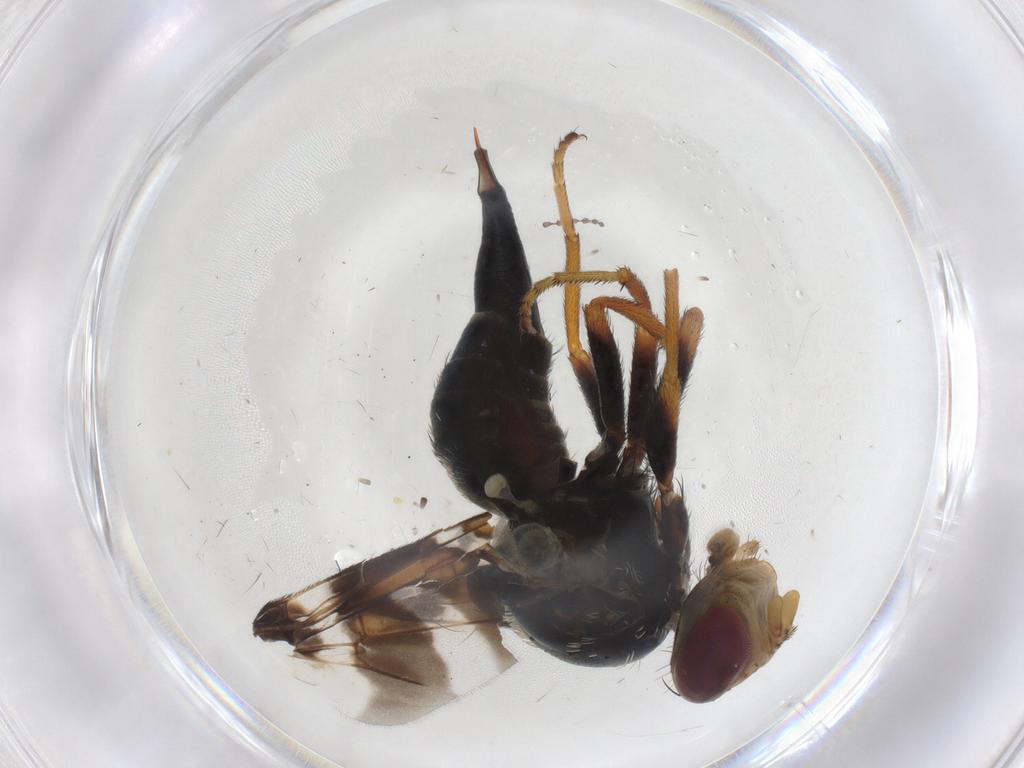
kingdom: Animalia
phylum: Arthropoda
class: Insecta
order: Diptera
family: Tephritidae
